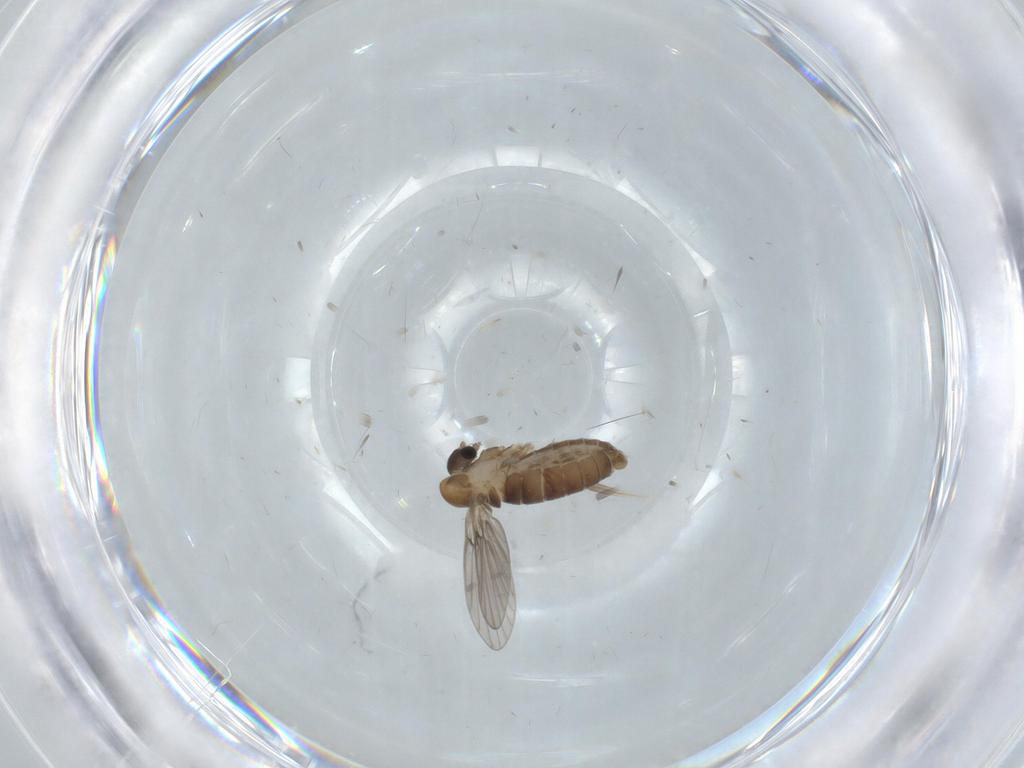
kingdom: Animalia
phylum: Arthropoda
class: Insecta
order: Diptera
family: Psychodidae
